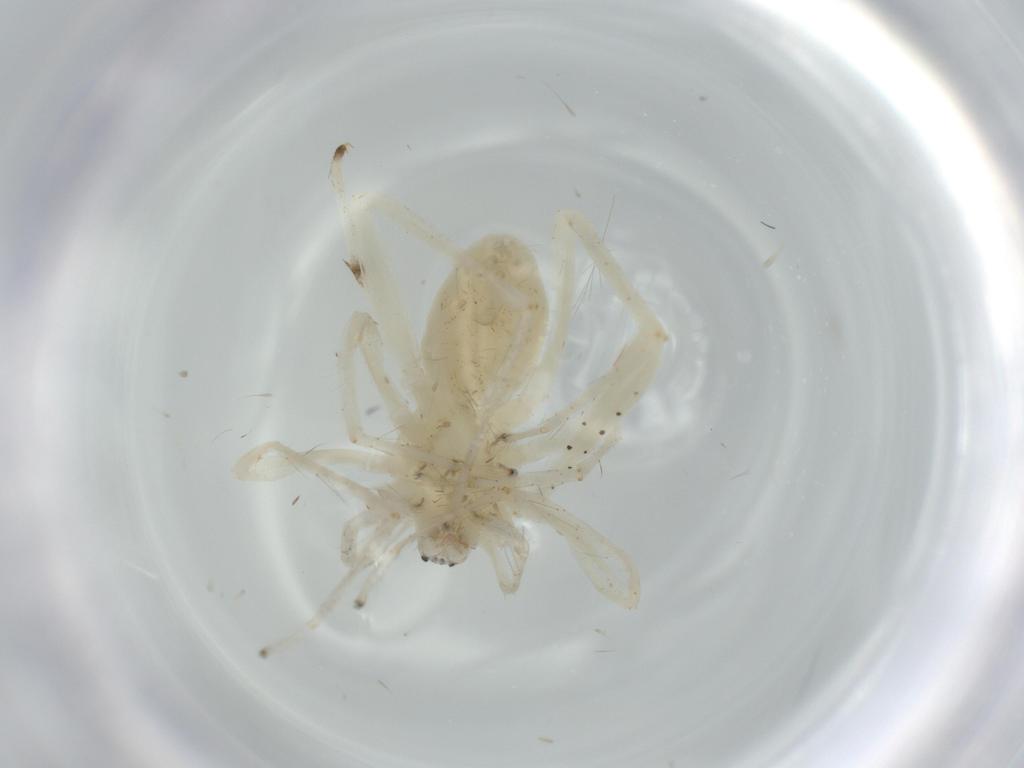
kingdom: Animalia
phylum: Arthropoda
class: Arachnida
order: Araneae
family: Anyphaenidae
